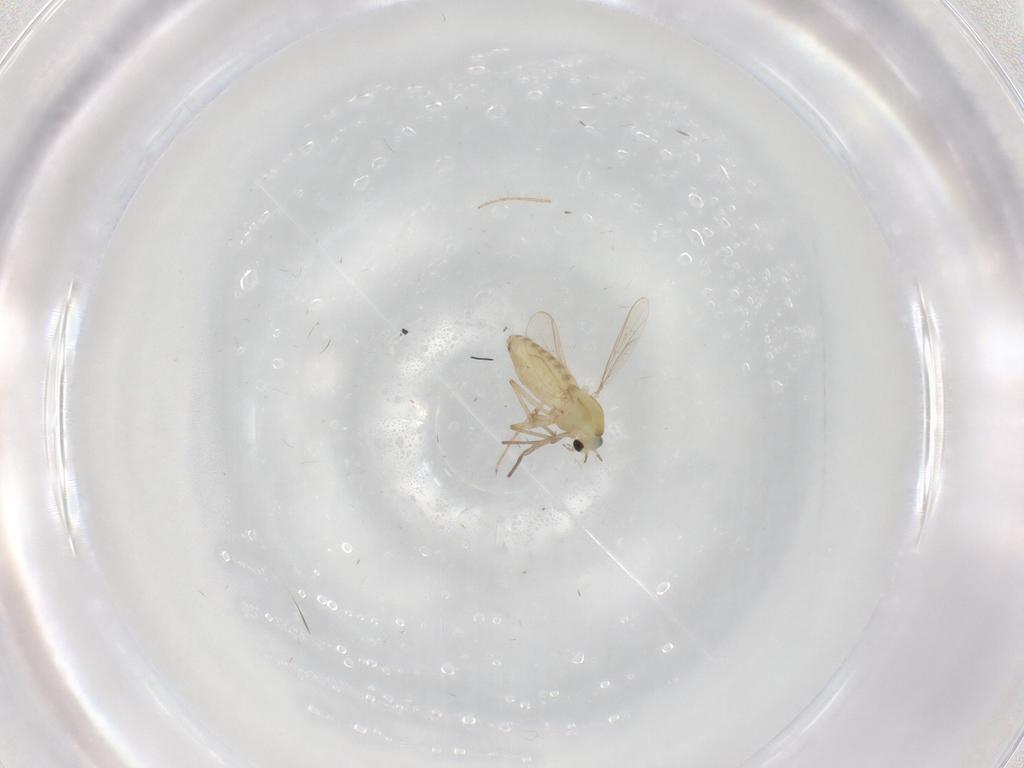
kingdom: Animalia
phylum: Arthropoda
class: Insecta
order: Diptera
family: Chironomidae
